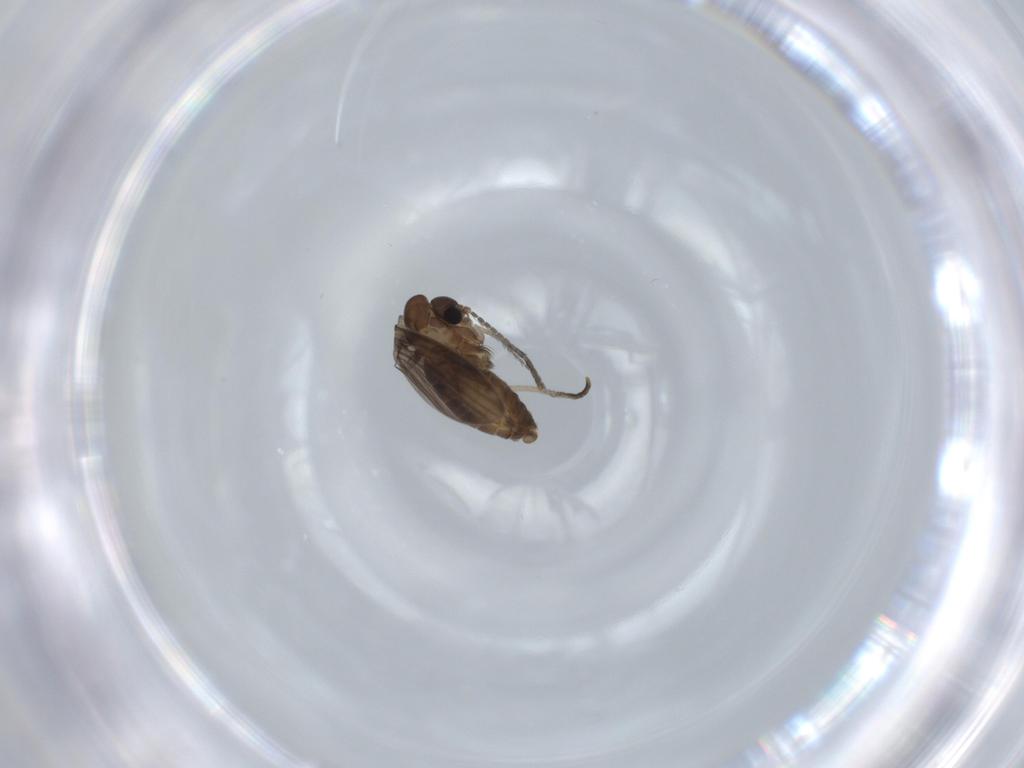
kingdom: Animalia
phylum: Arthropoda
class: Insecta
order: Diptera
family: Psychodidae
